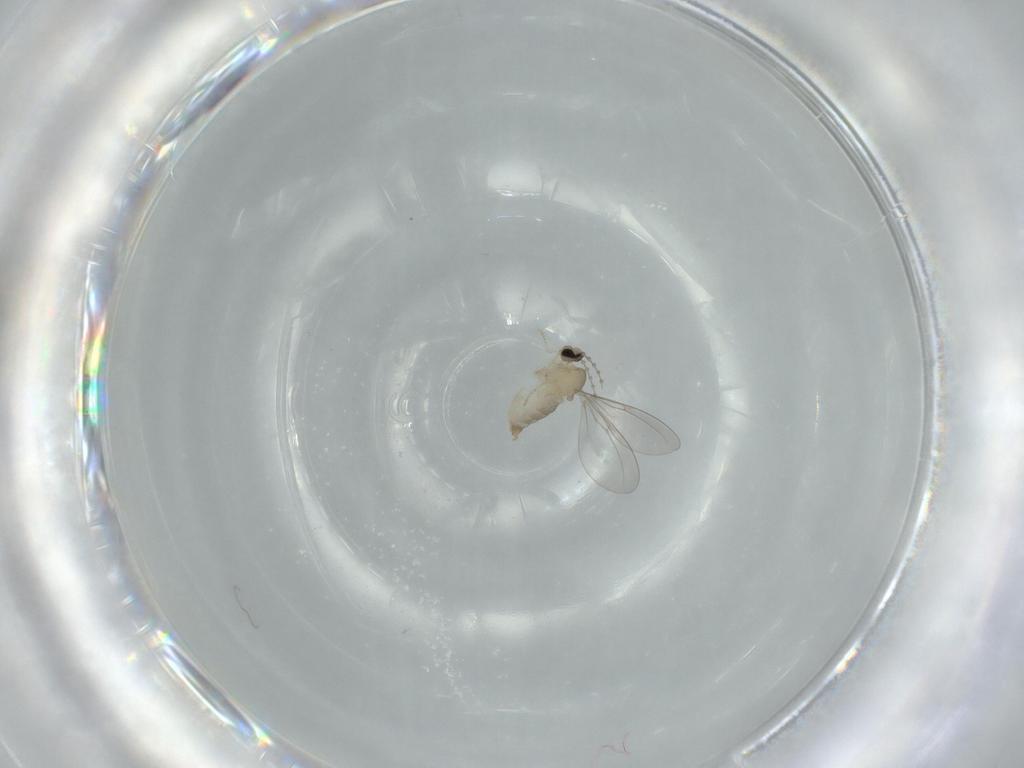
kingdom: Animalia
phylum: Arthropoda
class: Insecta
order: Diptera
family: Cecidomyiidae
